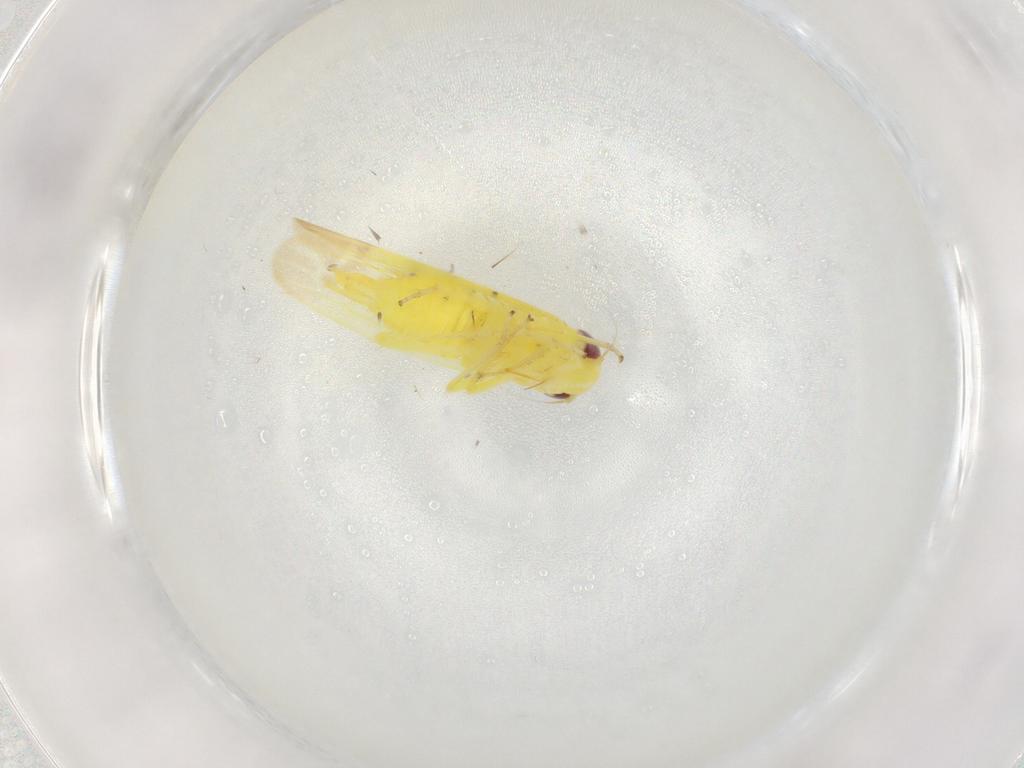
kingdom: Animalia
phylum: Arthropoda
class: Insecta
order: Hemiptera
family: Cicadellidae
